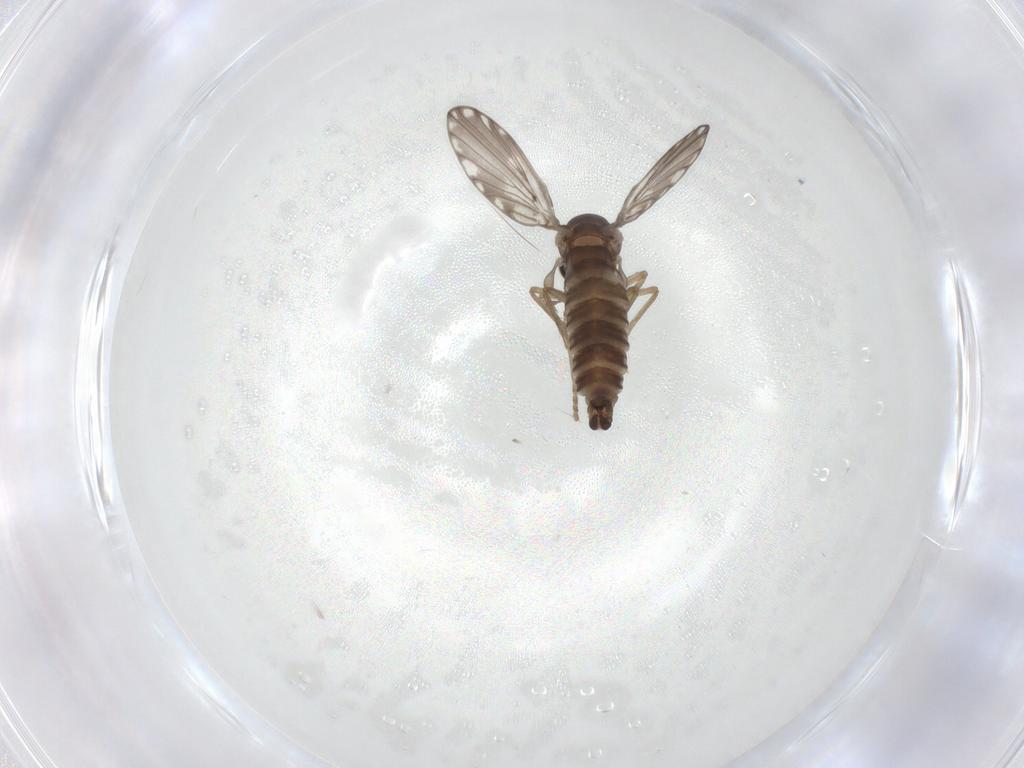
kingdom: Animalia
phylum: Arthropoda
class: Insecta
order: Diptera
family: Psychodidae
